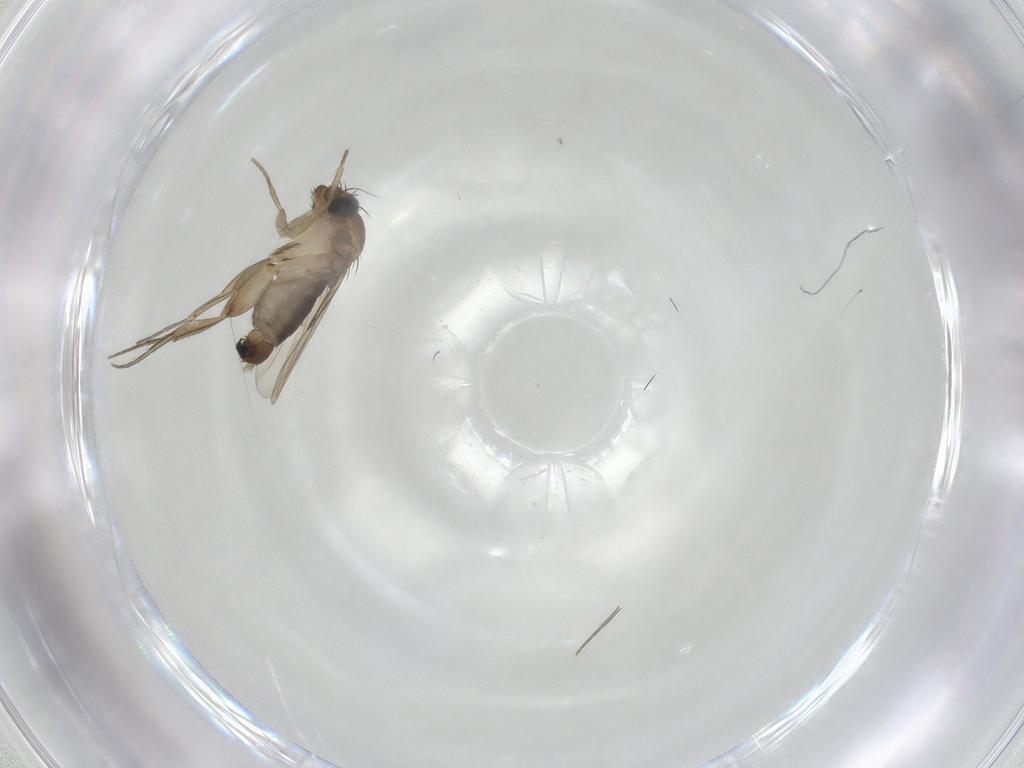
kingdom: Animalia
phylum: Arthropoda
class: Insecta
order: Diptera
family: Phoridae
